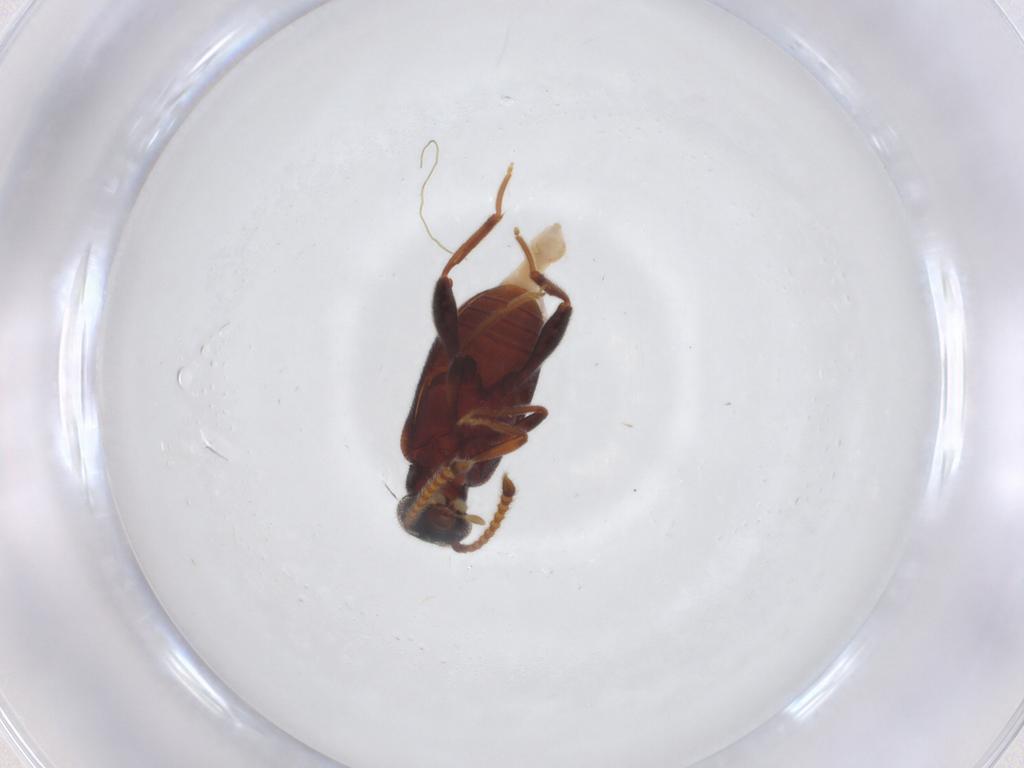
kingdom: Animalia
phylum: Arthropoda
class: Insecta
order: Coleoptera
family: Aderidae
